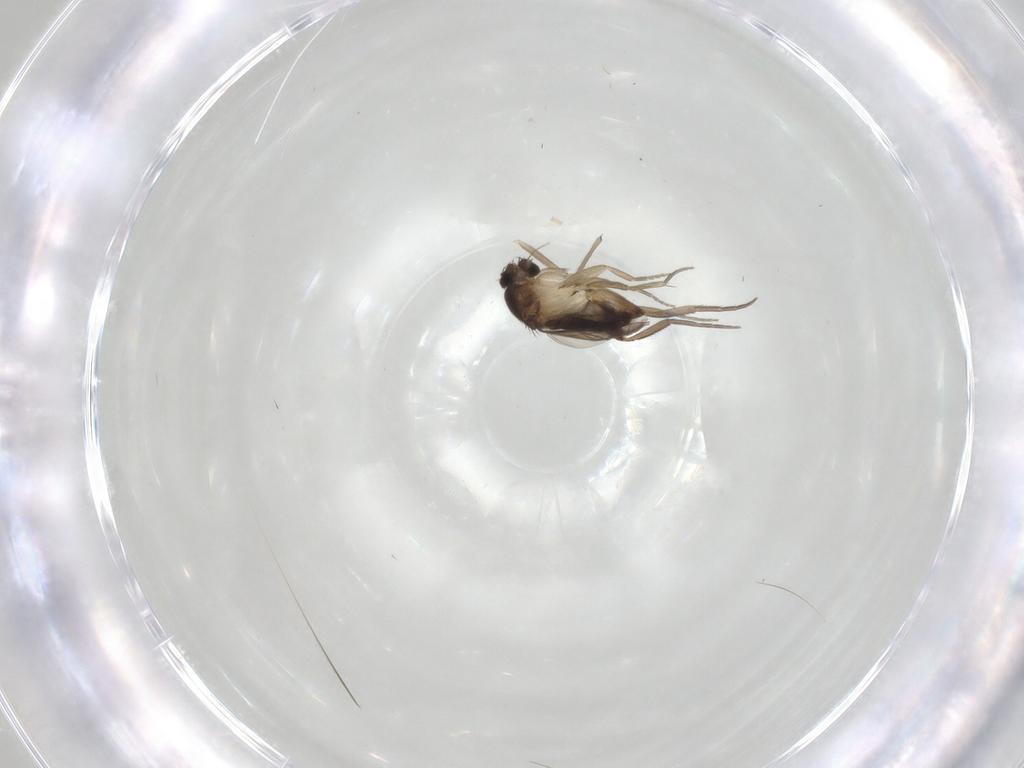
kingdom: Animalia
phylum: Arthropoda
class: Insecta
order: Diptera
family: Phoridae
